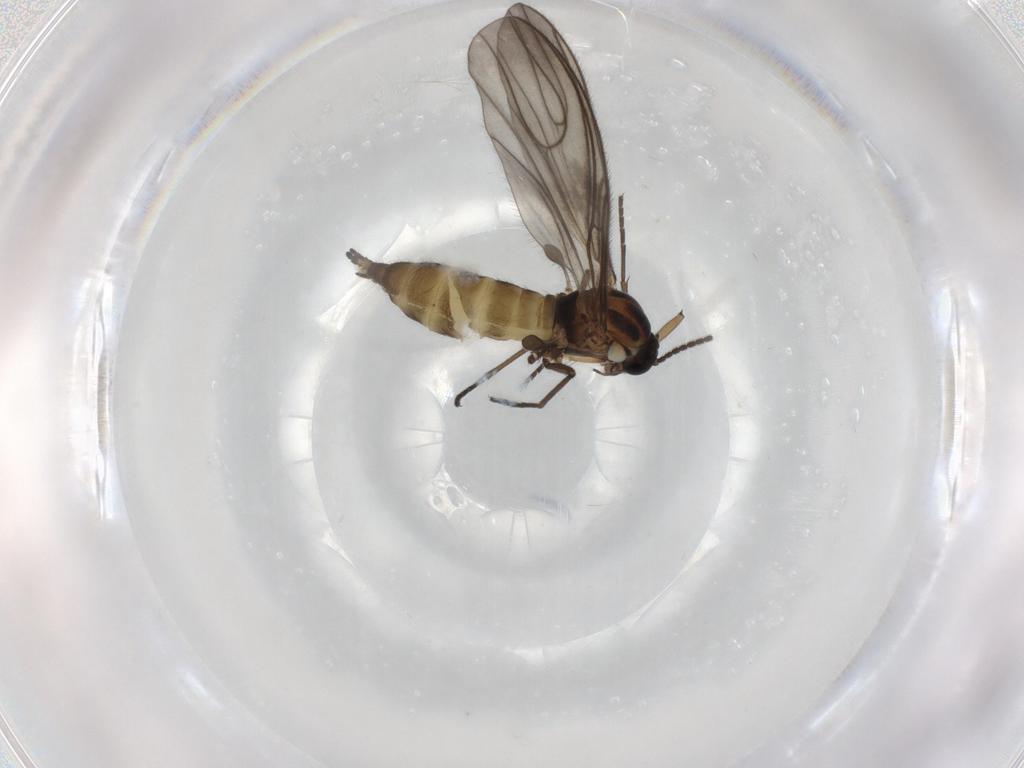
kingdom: Animalia
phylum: Arthropoda
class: Insecta
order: Diptera
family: Sciaridae
